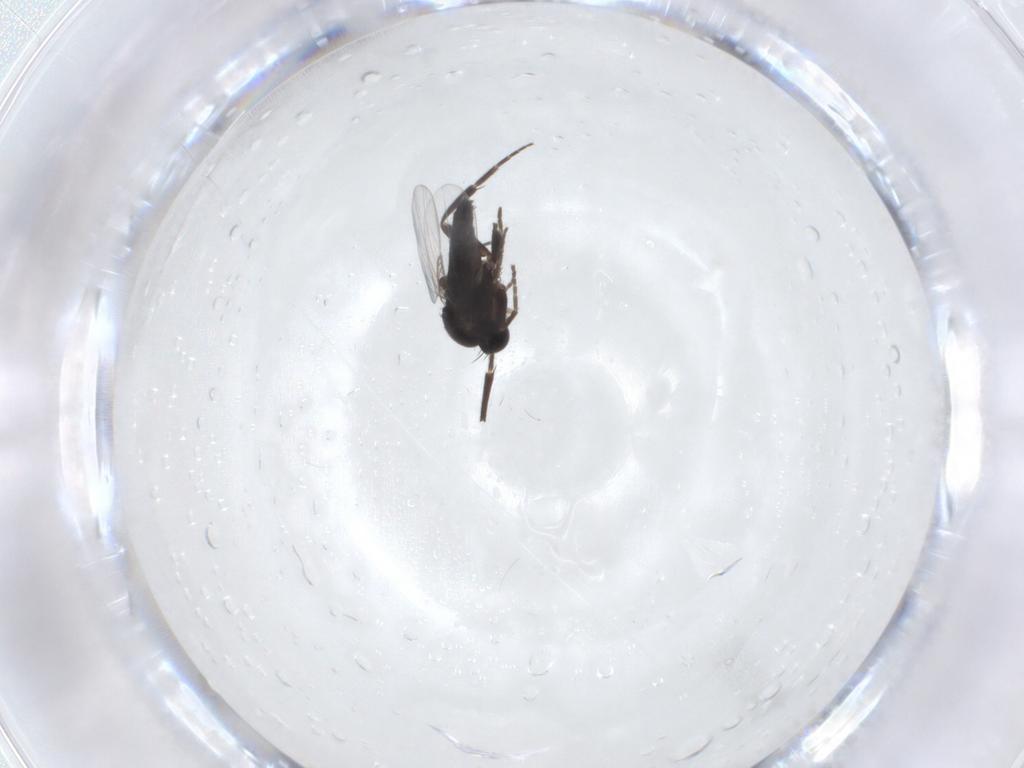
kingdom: Animalia
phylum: Arthropoda
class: Insecta
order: Diptera
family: Phoridae
